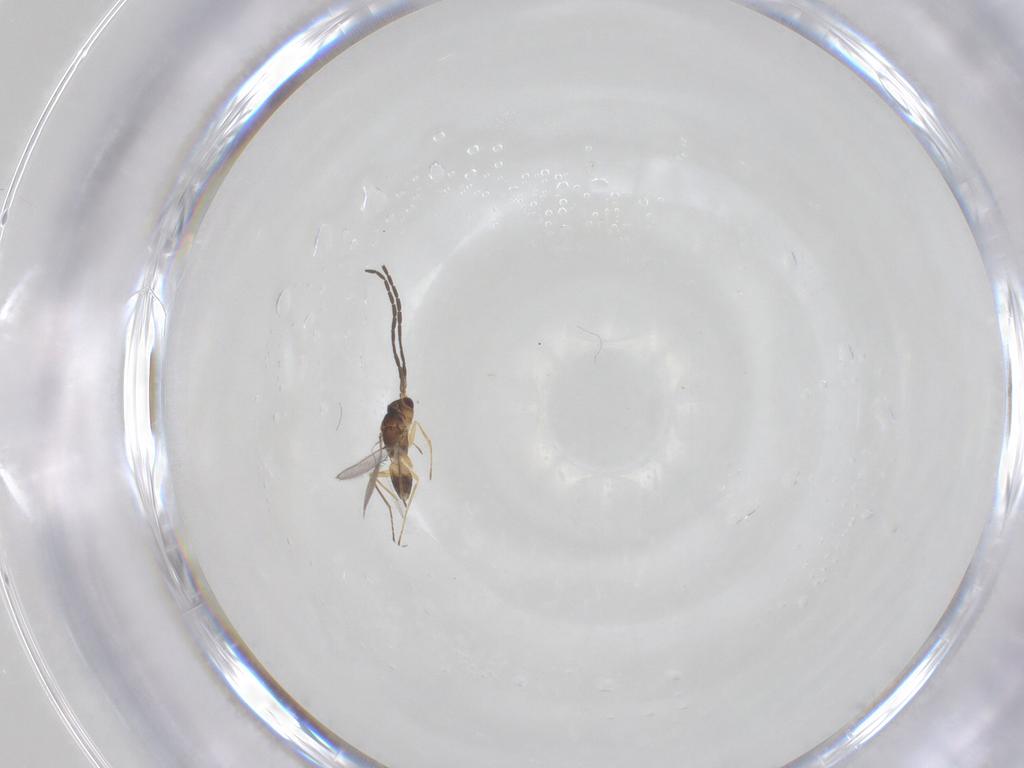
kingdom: Animalia
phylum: Arthropoda
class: Insecta
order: Hymenoptera
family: Mymaridae
